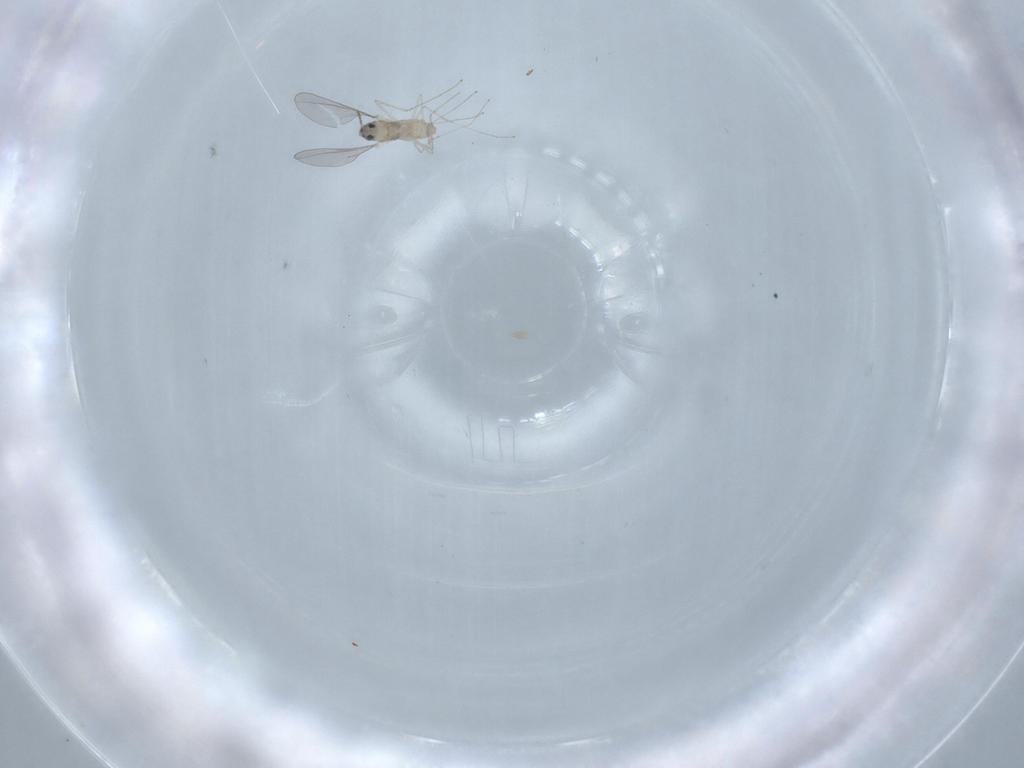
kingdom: Animalia
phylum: Arthropoda
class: Insecta
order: Diptera
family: Cecidomyiidae
